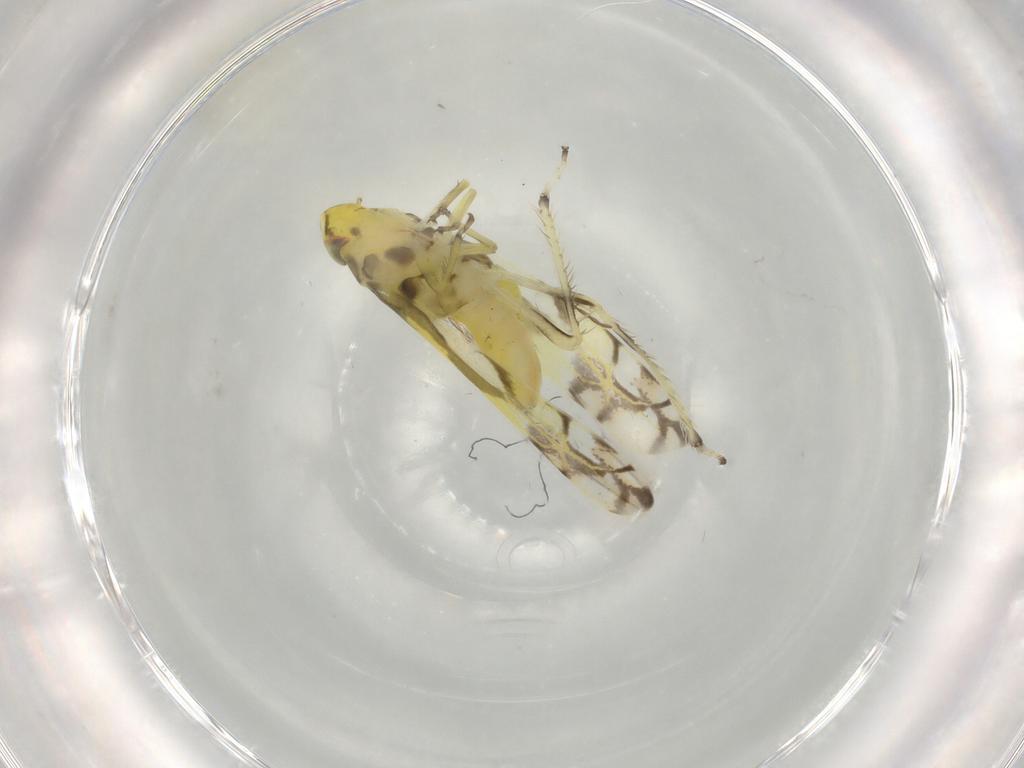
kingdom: Animalia
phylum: Arthropoda
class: Insecta
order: Hemiptera
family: Cicadellidae
